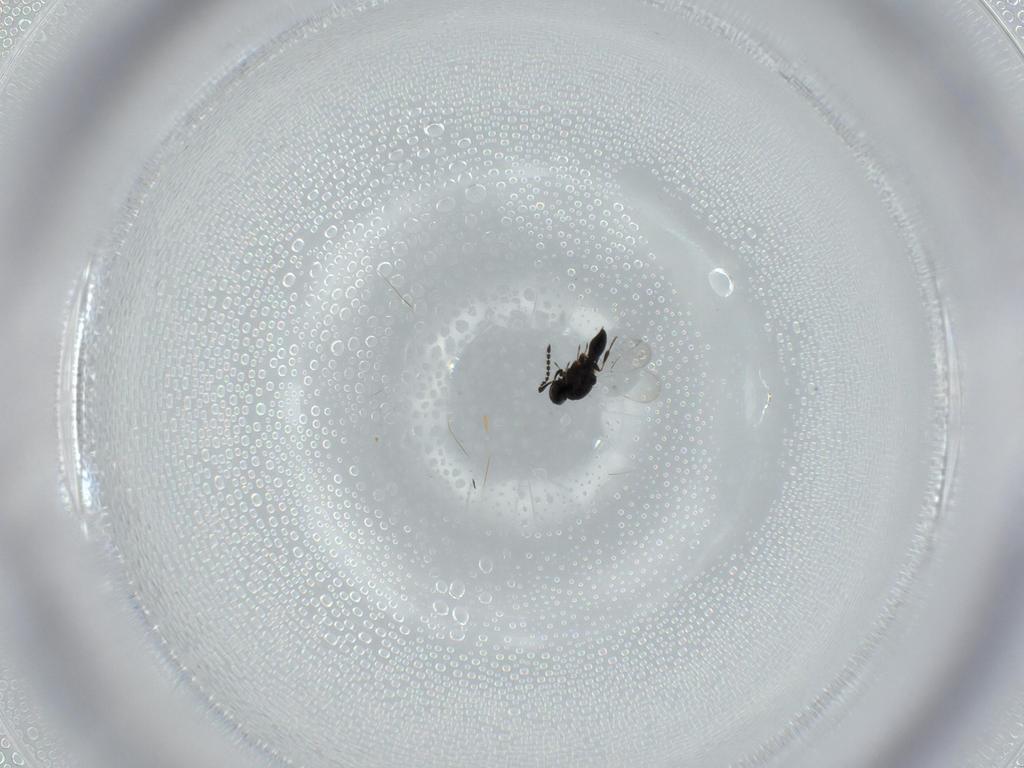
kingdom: Animalia
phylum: Arthropoda
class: Insecta
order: Hymenoptera
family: Platygastridae
